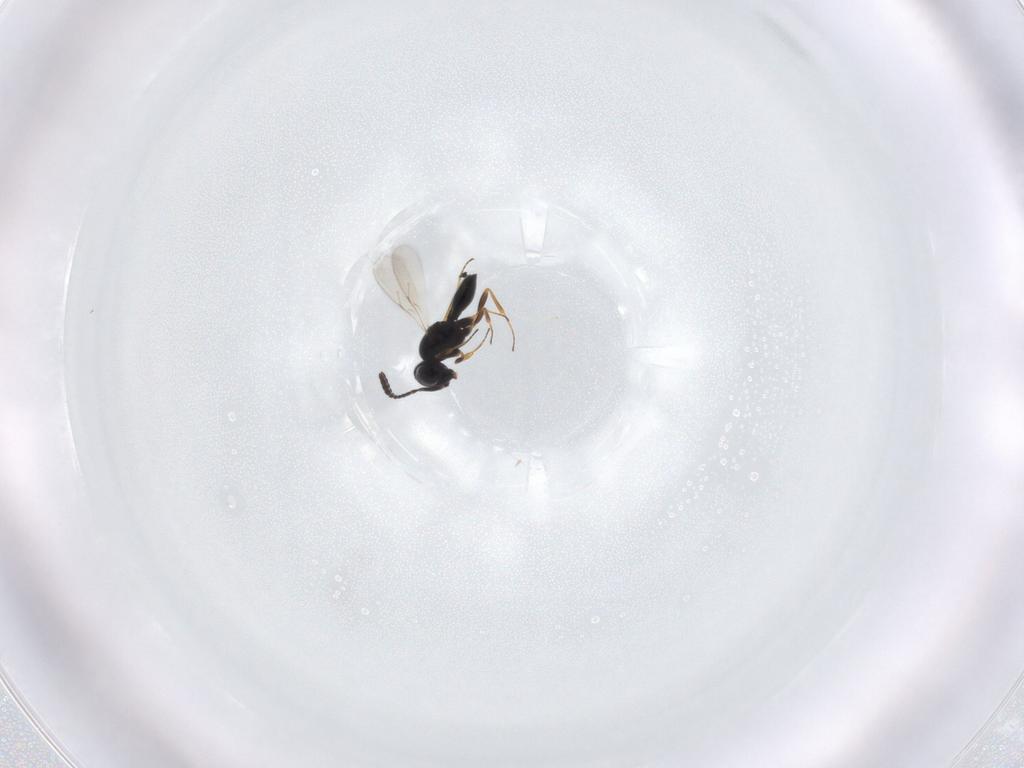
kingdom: Animalia
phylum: Arthropoda
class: Insecta
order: Hymenoptera
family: Scelionidae
